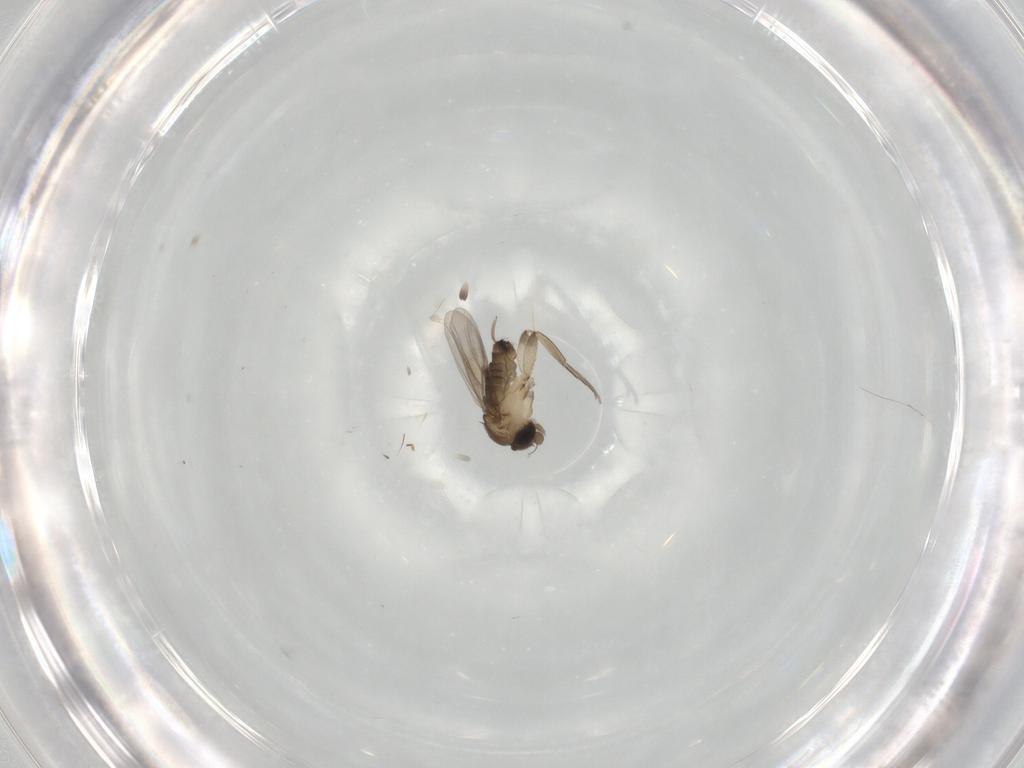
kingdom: Animalia
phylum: Arthropoda
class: Insecta
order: Diptera
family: Phoridae
